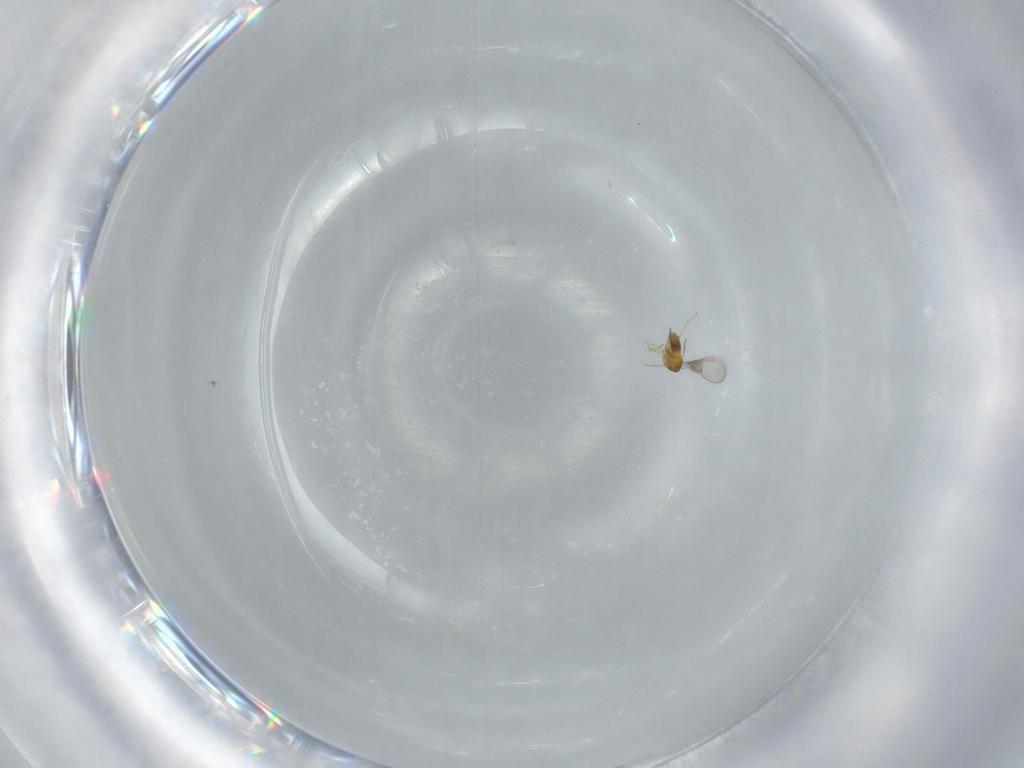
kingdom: Animalia
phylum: Arthropoda
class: Insecta
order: Hymenoptera
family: Trichogrammatidae
